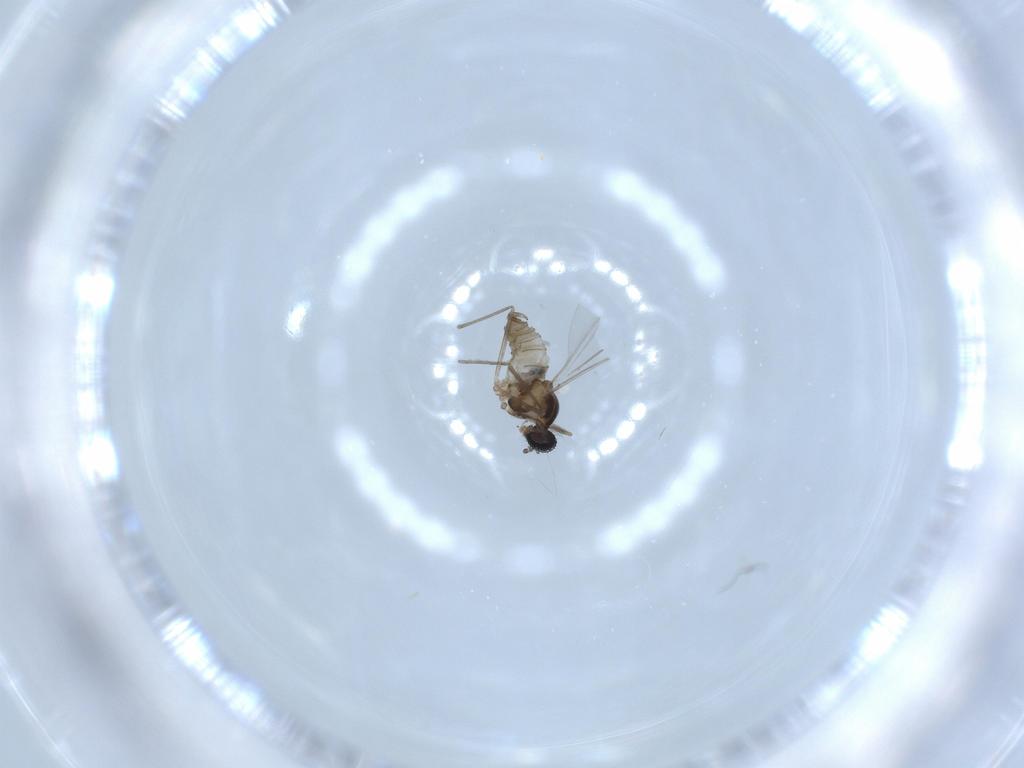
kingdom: Animalia
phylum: Arthropoda
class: Insecta
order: Diptera
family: Cecidomyiidae
